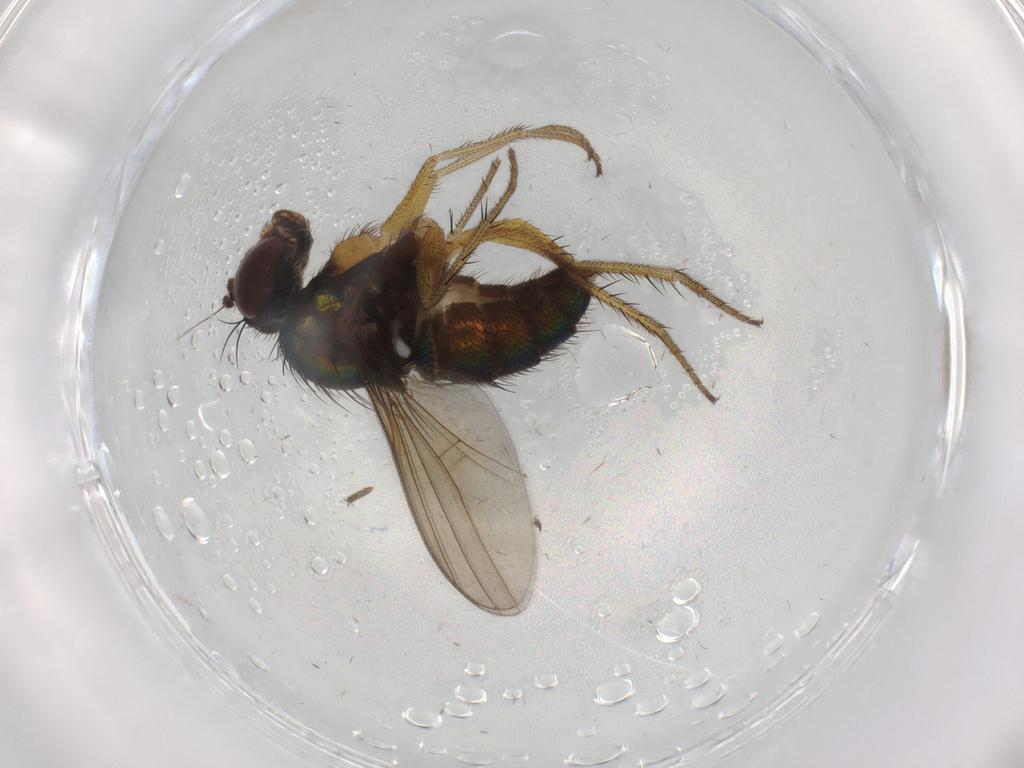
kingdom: Animalia
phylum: Arthropoda
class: Insecta
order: Diptera
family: Dolichopodidae
